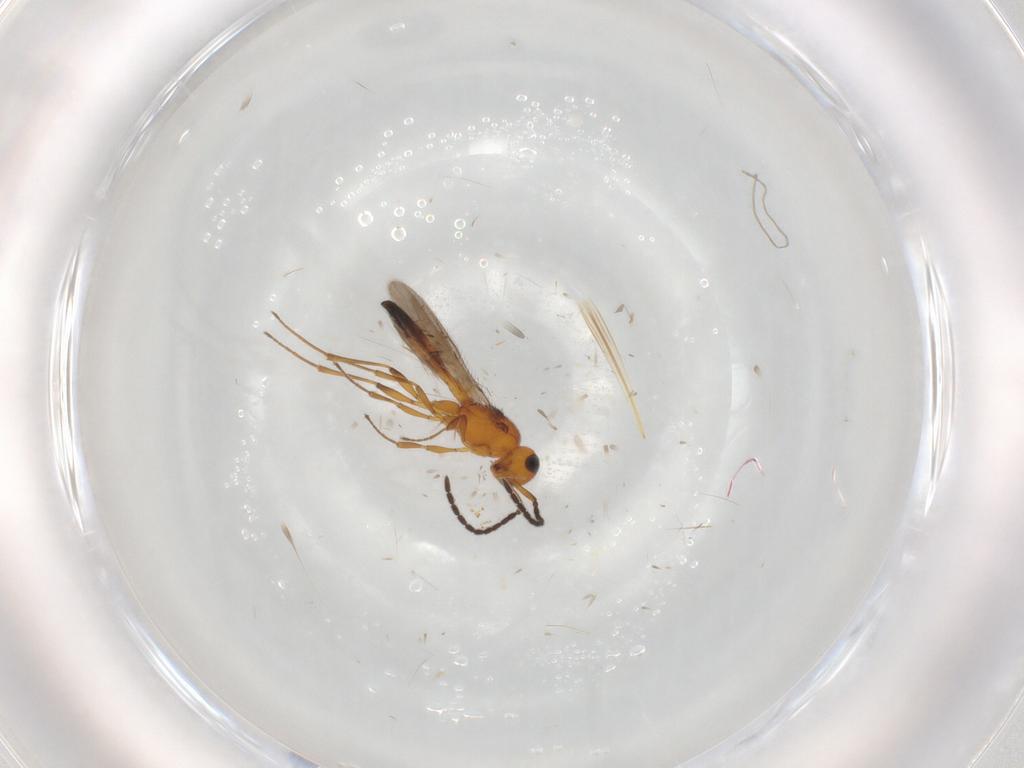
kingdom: Animalia
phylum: Arthropoda
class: Insecta
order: Hymenoptera
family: Scelionidae
